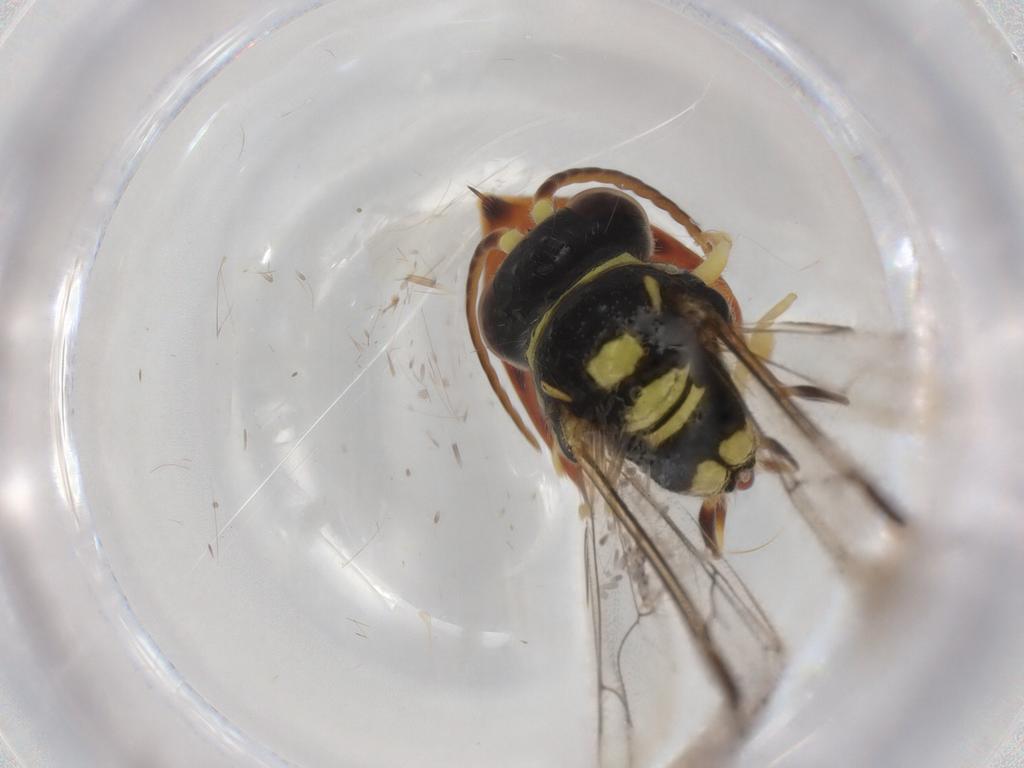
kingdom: Animalia
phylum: Arthropoda
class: Insecta
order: Hymenoptera
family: Crabronidae
